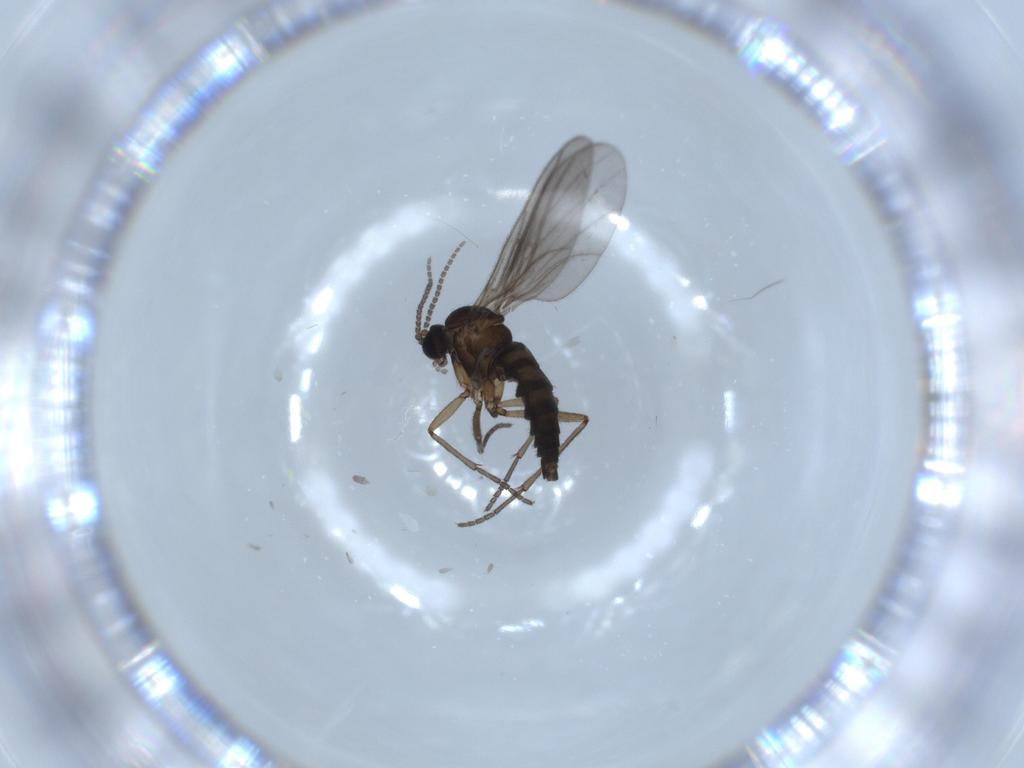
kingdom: Animalia
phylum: Arthropoda
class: Insecta
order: Diptera
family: Sciaridae
